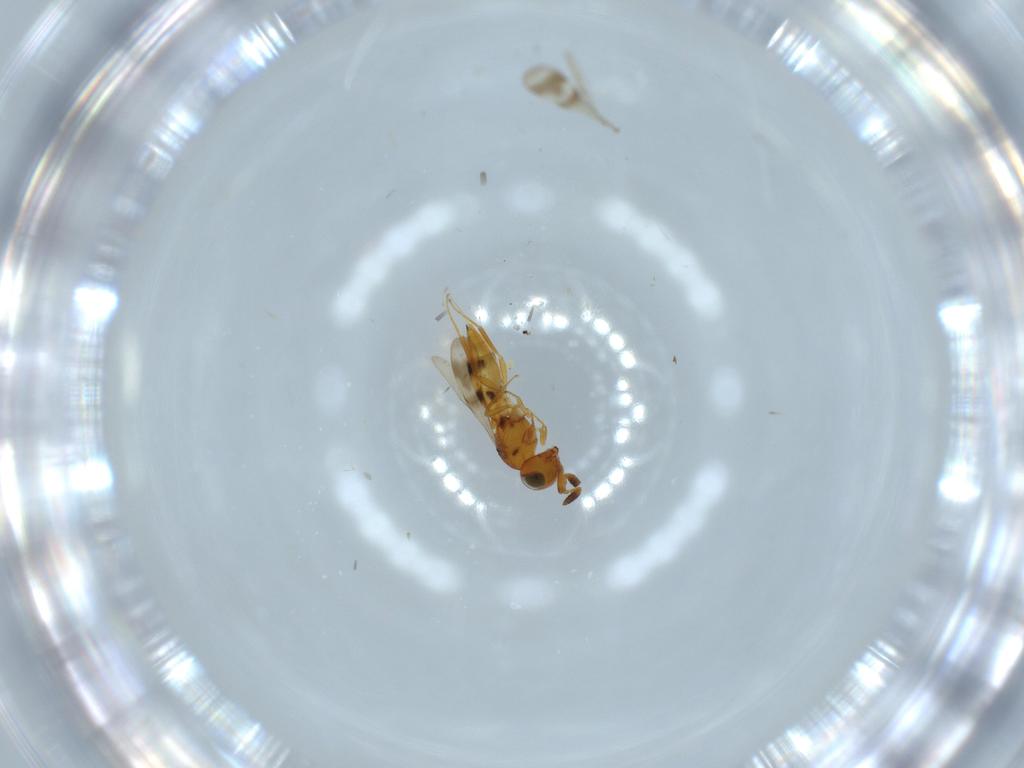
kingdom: Animalia
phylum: Arthropoda
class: Insecta
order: Hymenoptera
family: Scelionidae
